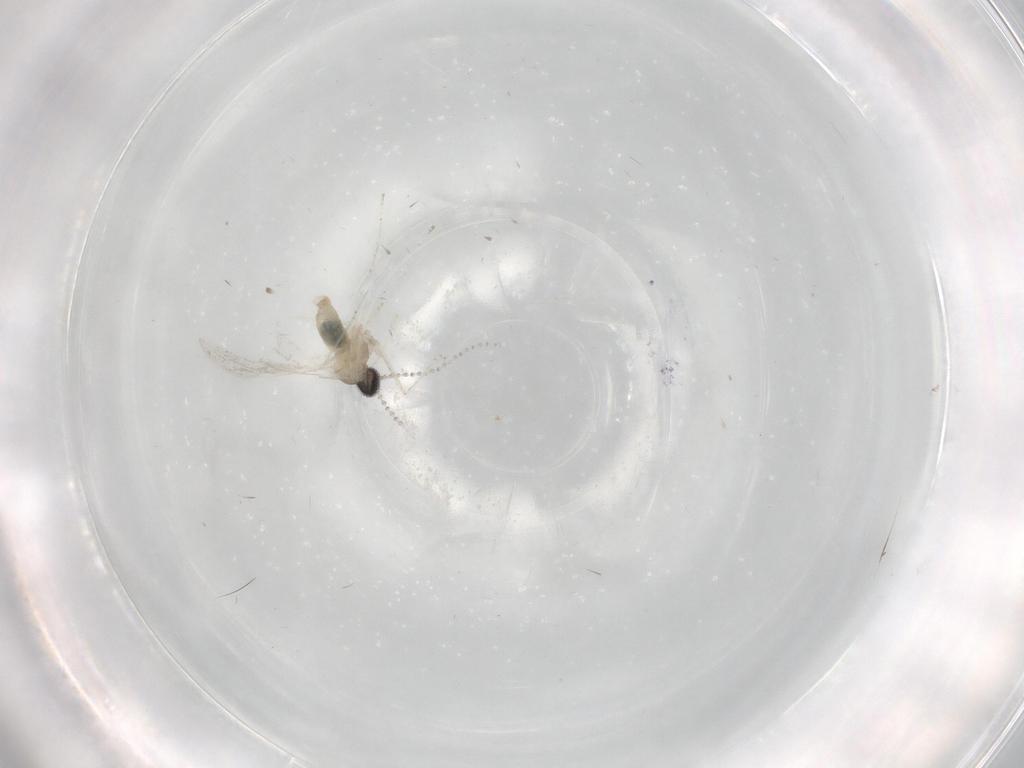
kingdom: Animalia
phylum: Arthropoda
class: Insecta
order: Diptera
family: Cecidomyiidae
